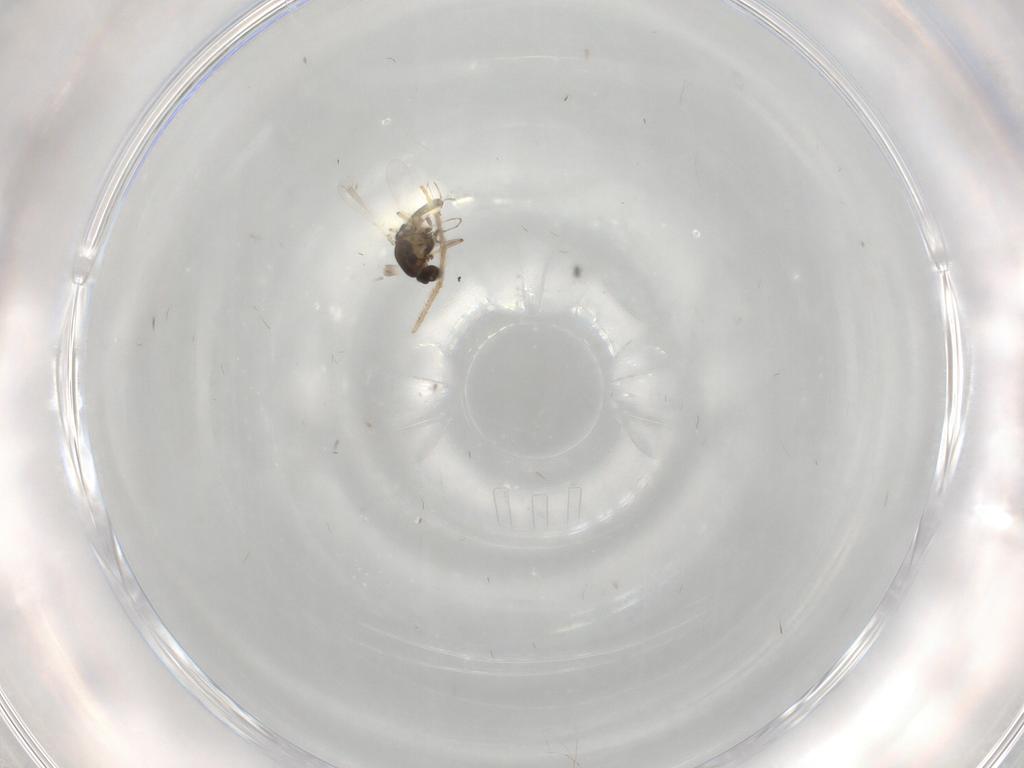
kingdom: Animalia
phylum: Arthropoda
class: Insecta
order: Diptera
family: Chironomidae
